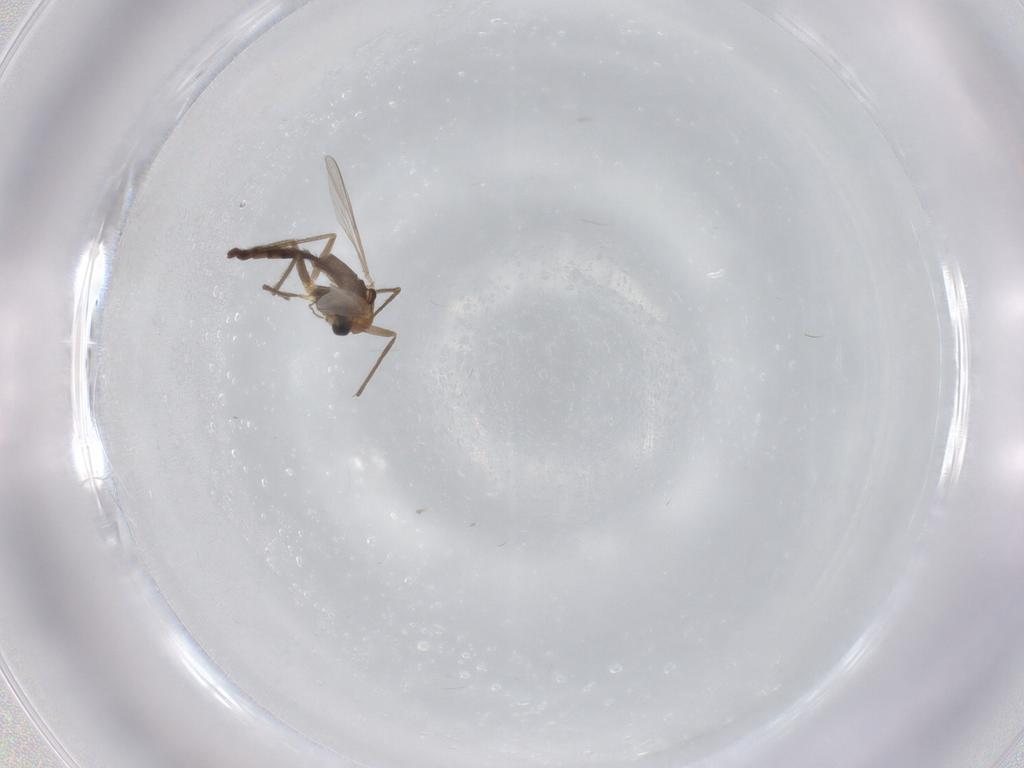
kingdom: Animalia
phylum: Arthropoda
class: Insecta
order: Diptera
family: Chironomidae
